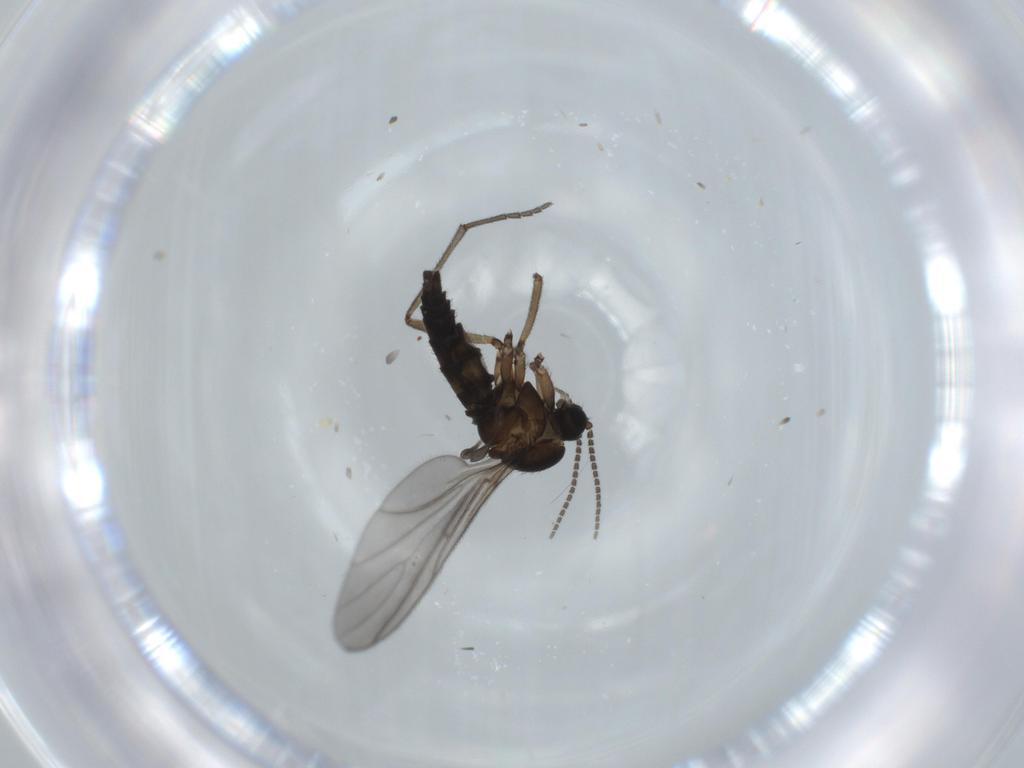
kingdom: Animalia
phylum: Arthropoda
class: Insecta
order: Diptera
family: Sciaridae
